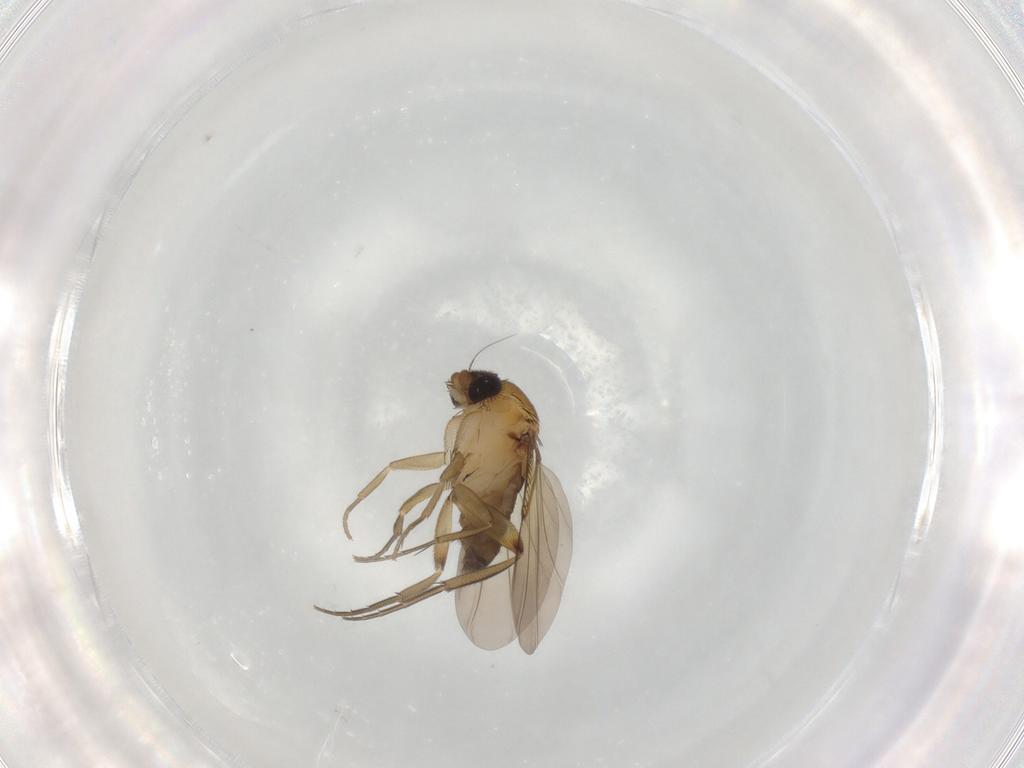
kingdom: Animalia
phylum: Arthropoda
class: Insecta
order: Diptera
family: Phoridae
